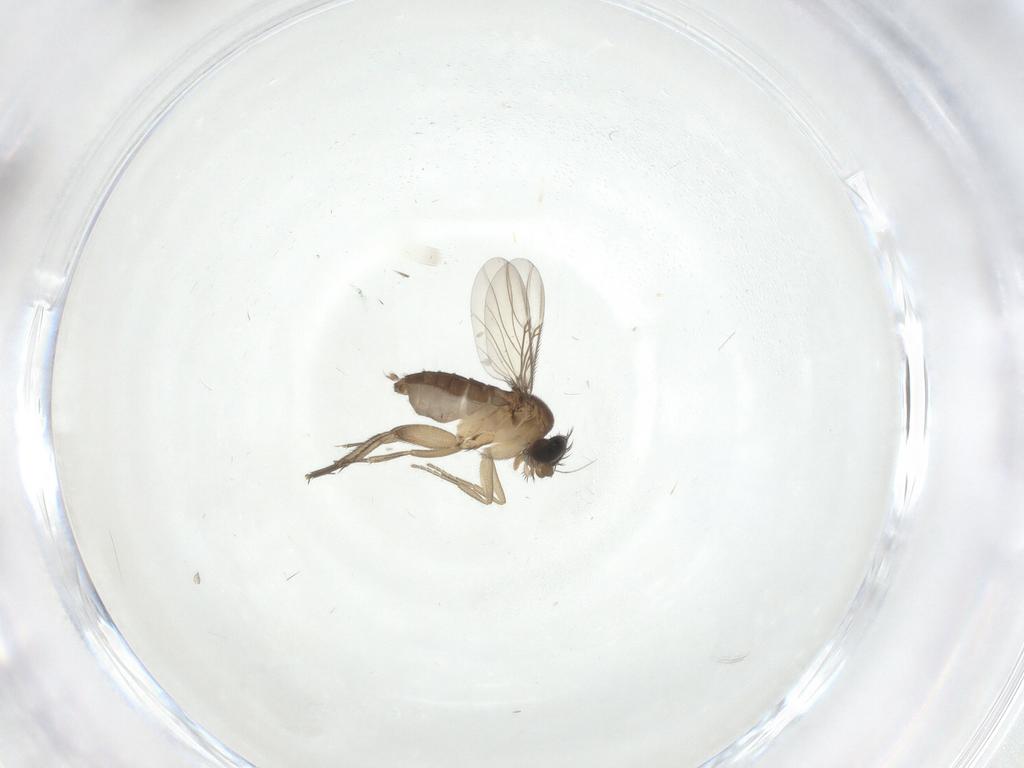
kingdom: Animalia
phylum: Arthropoda
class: Insecta
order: Diptera
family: Phoridae
